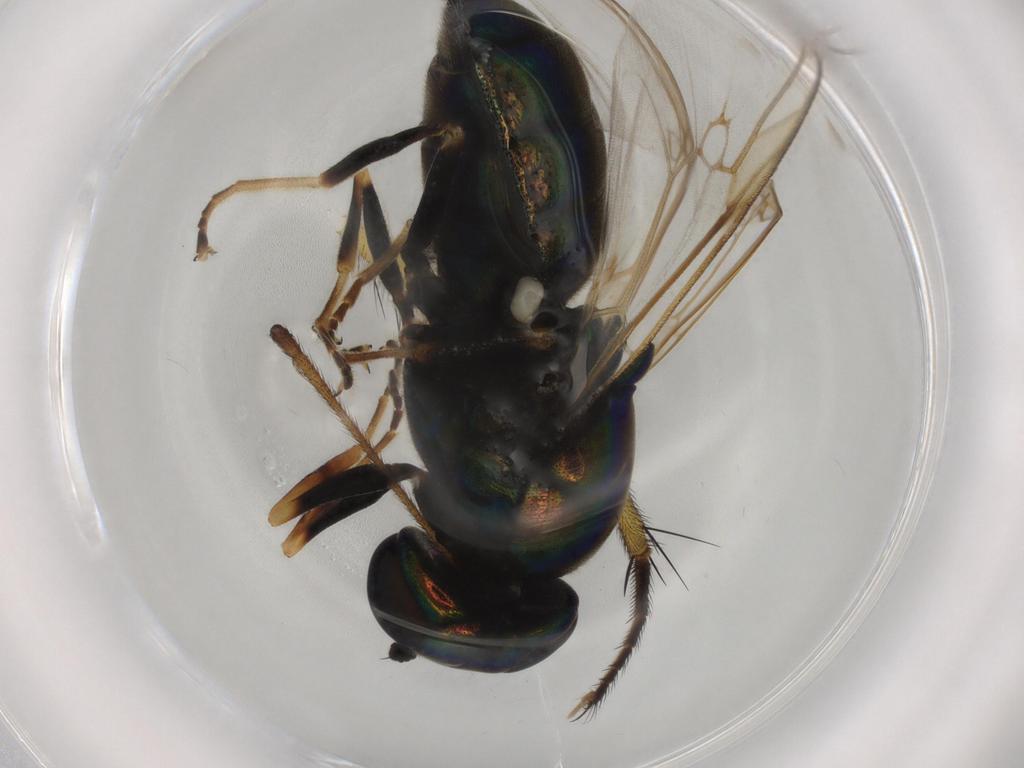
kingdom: Animalia
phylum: Arthropoda
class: Insecta
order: Diptera
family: Stratiomyidae
